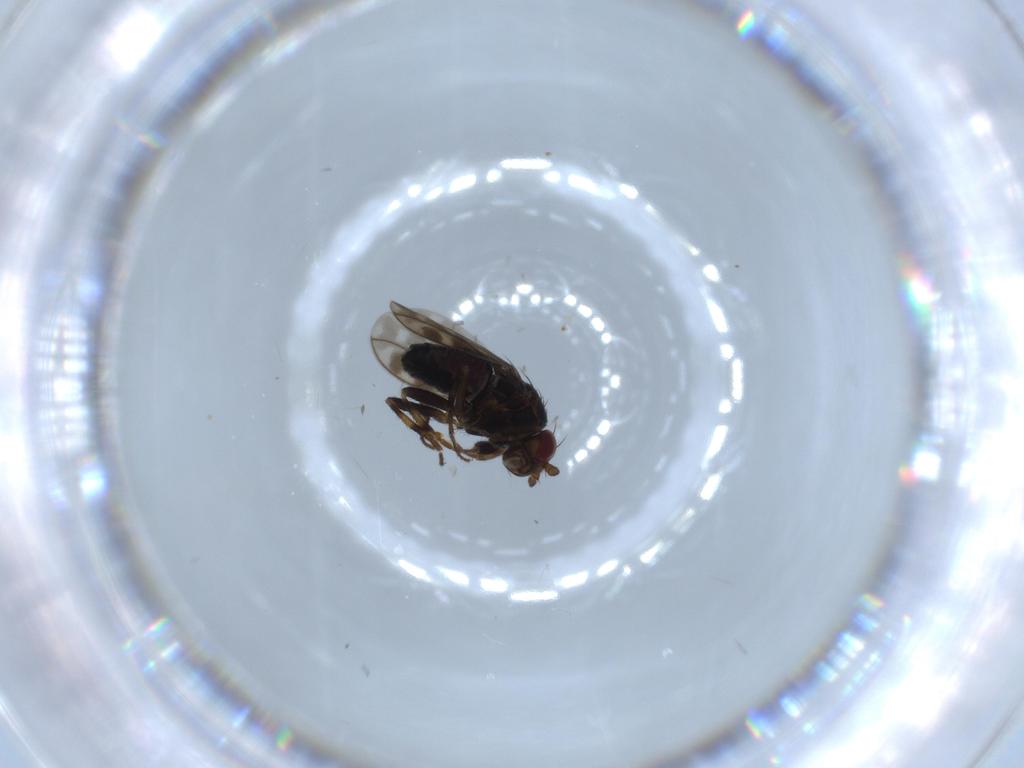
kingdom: Animalia
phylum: Arthropoda
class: Insecta
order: Diptera
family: Sphaeroceridae
